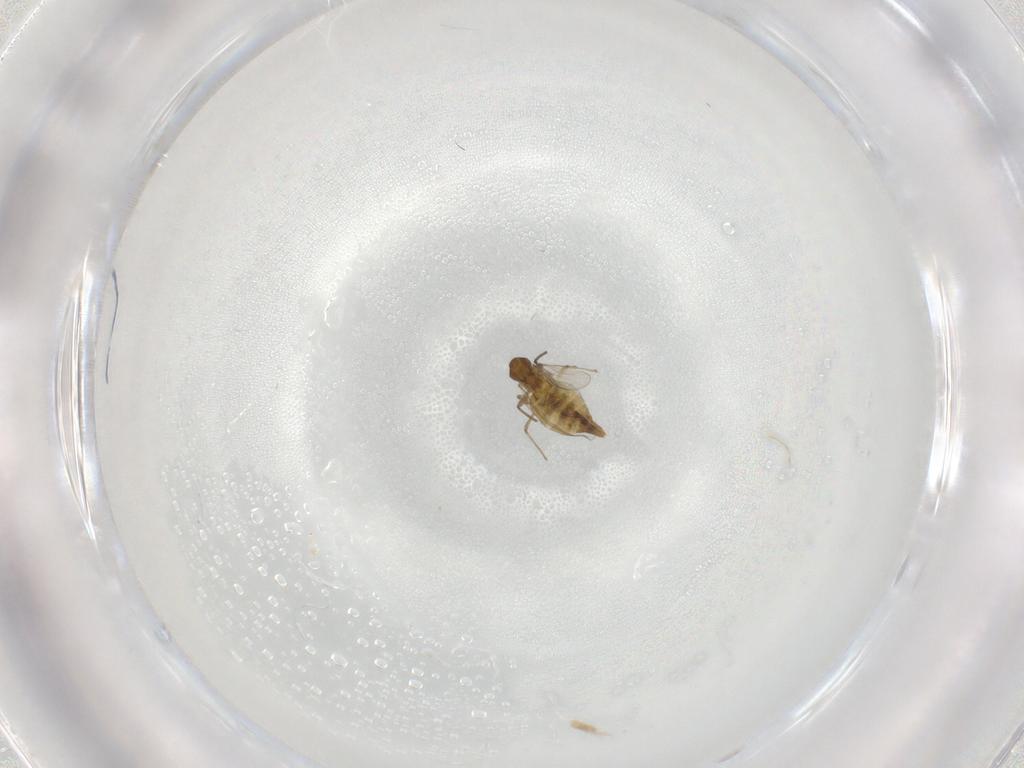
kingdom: Animalia
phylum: Arthropoda
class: Insecta
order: Diptera
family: Chironomidae
